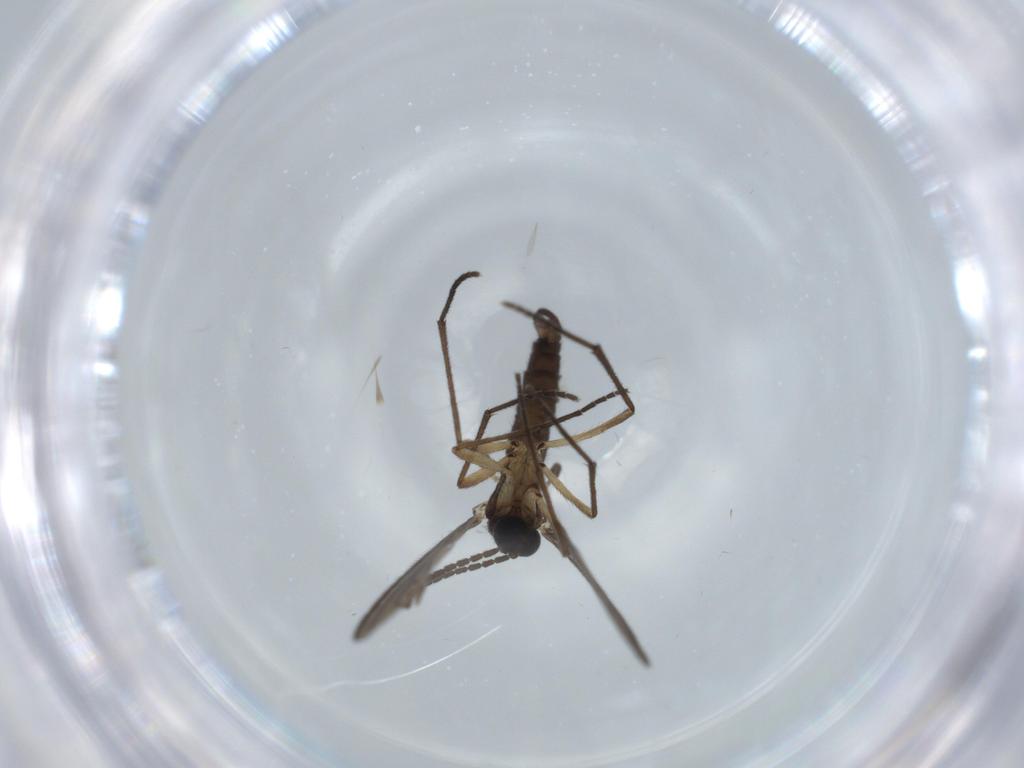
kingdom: Animalia
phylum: Arthropoda
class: Insecta
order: Diptera
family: Sciaridae
